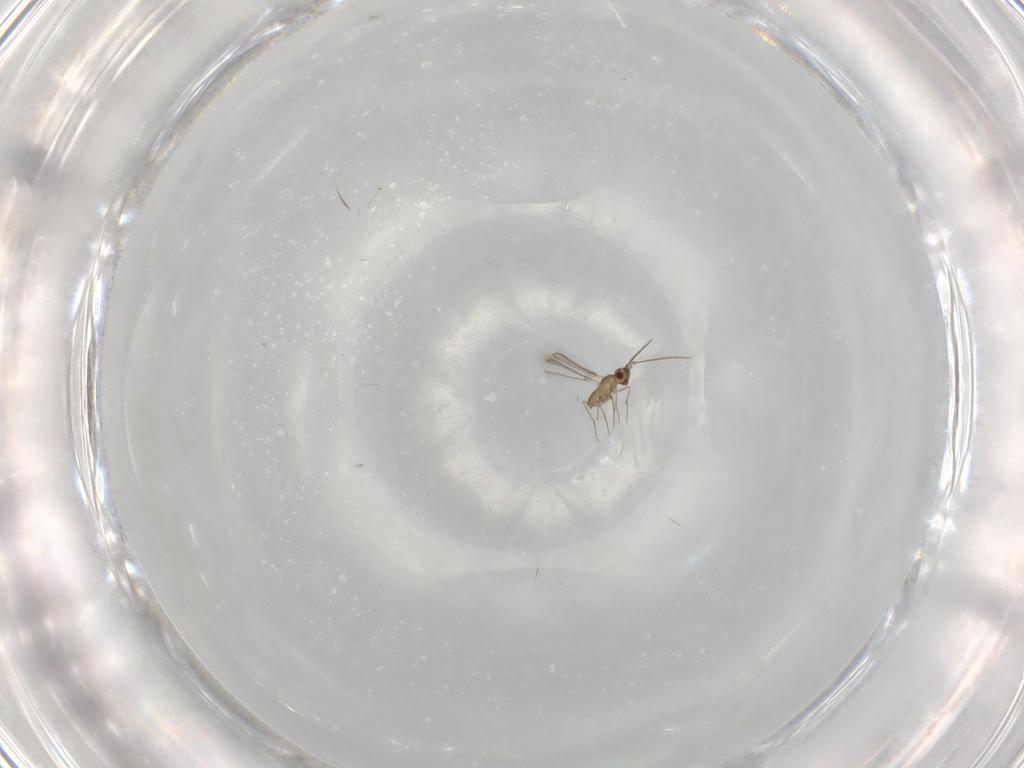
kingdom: Animalia
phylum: Arthropoda
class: Insecta
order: Hymenoptera
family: Mymaridae
